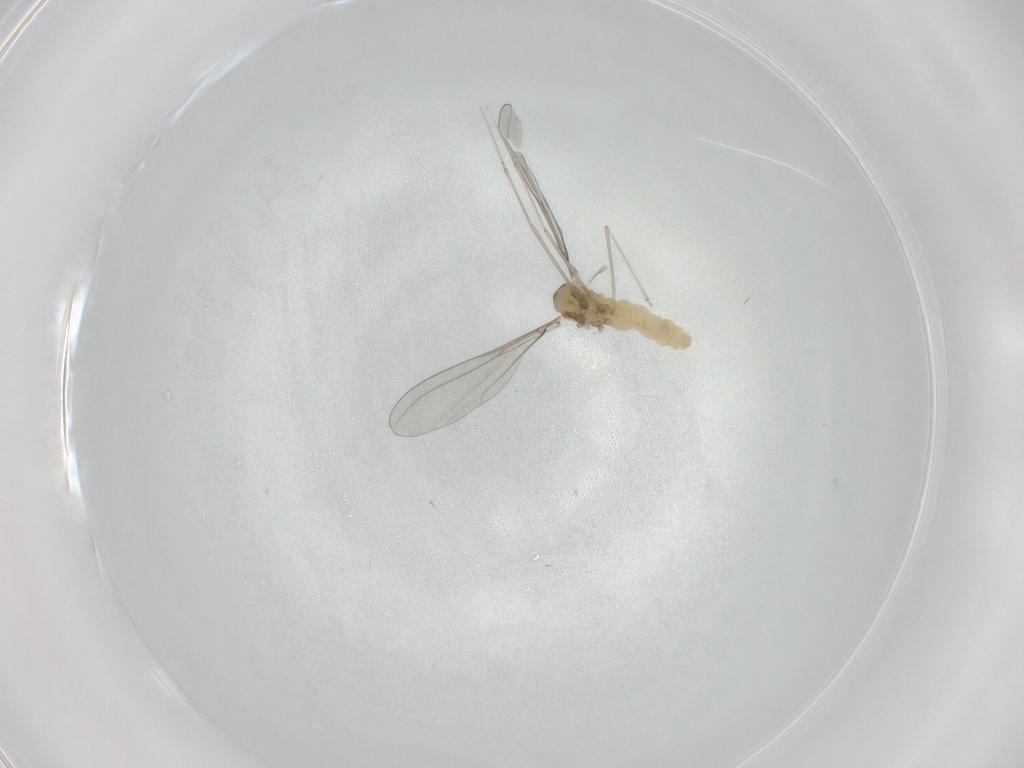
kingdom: Animalia
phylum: Arthropoda
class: Insecta
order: Diptera
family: Cecidomyiidae
